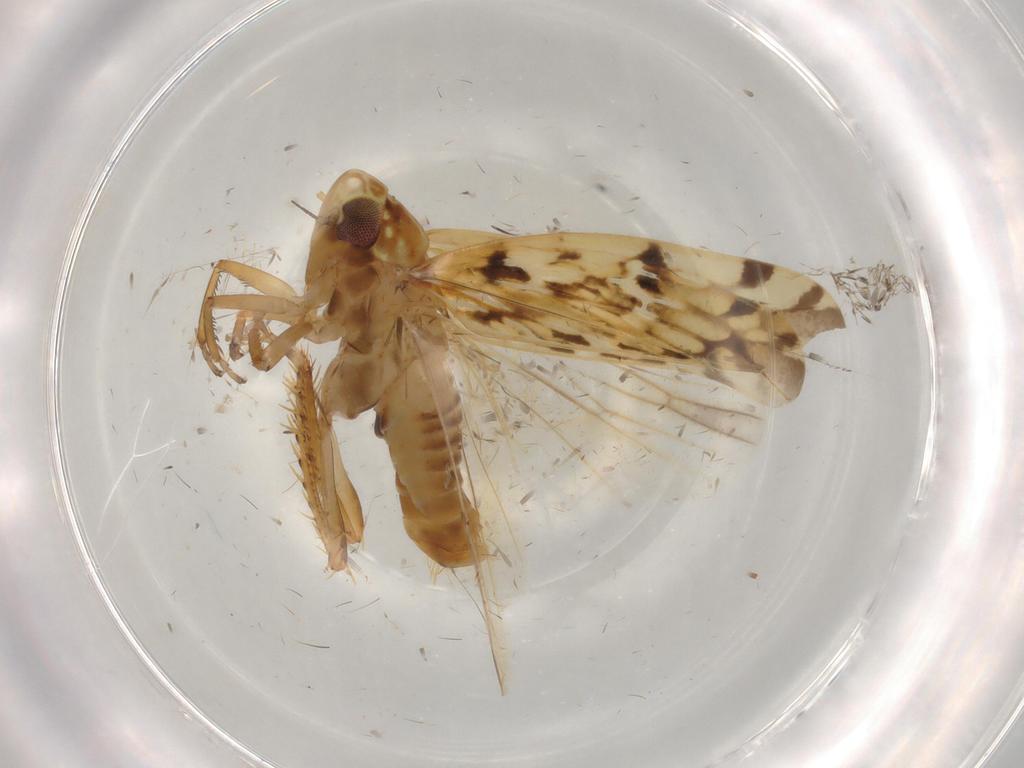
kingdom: Animalia
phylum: Arthropoda
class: Insecta
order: Hemiptera
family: Cicadellidae
